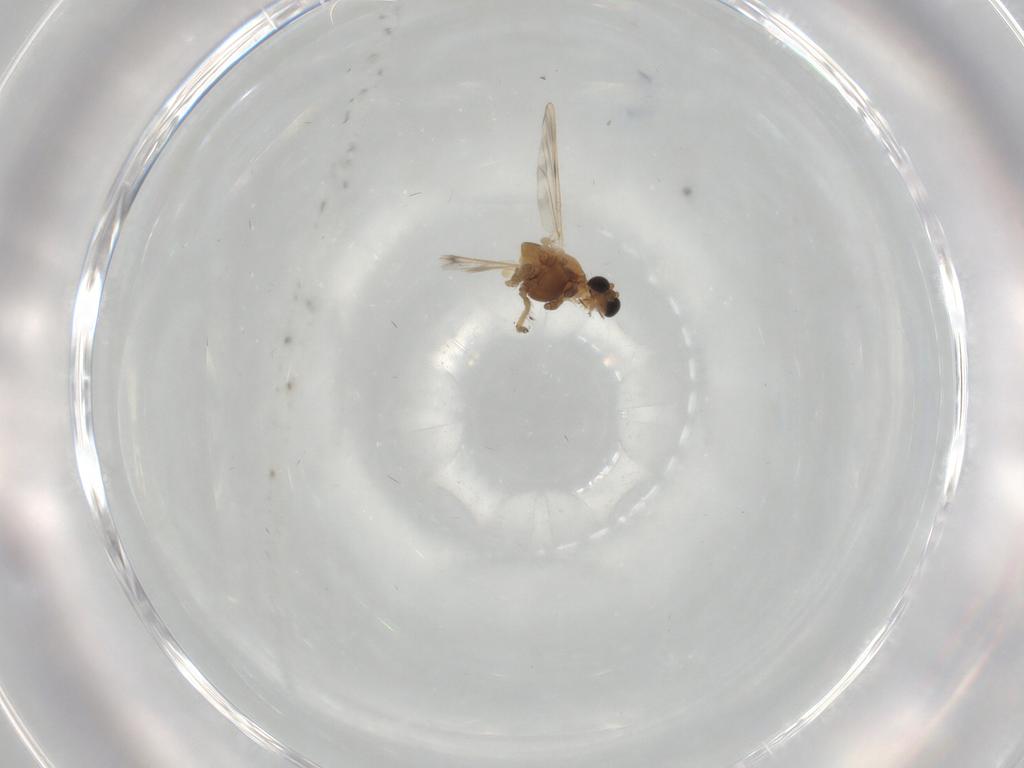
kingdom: Animalia
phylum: Arthropoda
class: Insecta
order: Diptera
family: Chironomidae
